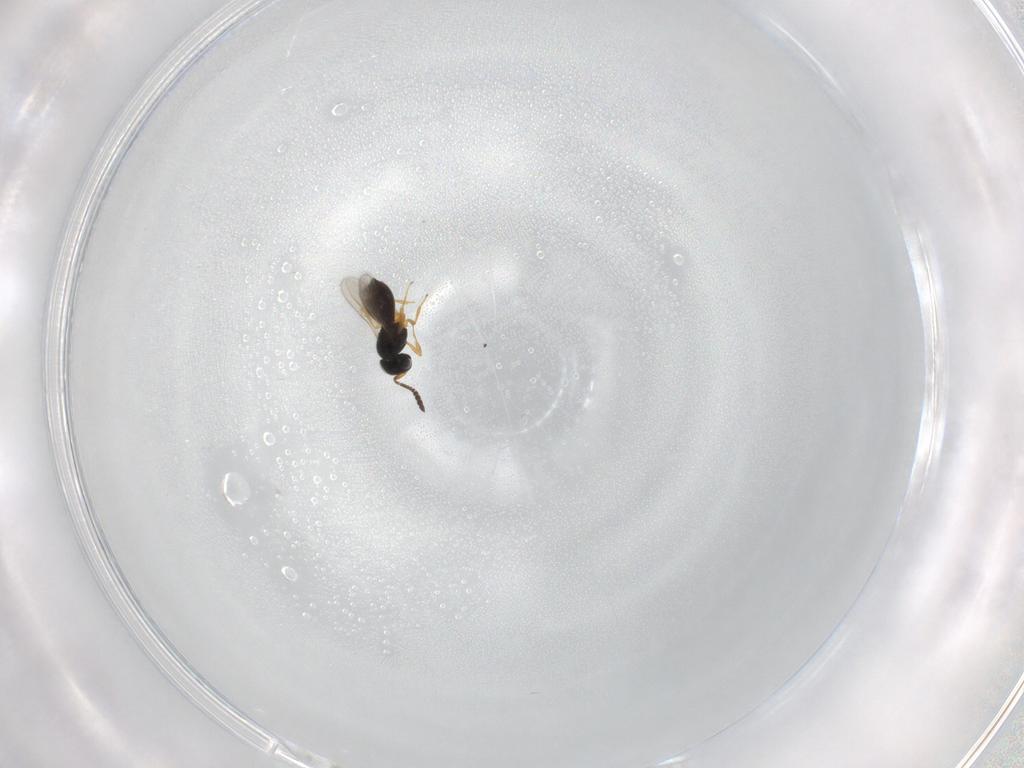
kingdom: Animalia
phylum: Arthropoda
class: Insecta
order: Hymenoptera
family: Scelionidae
